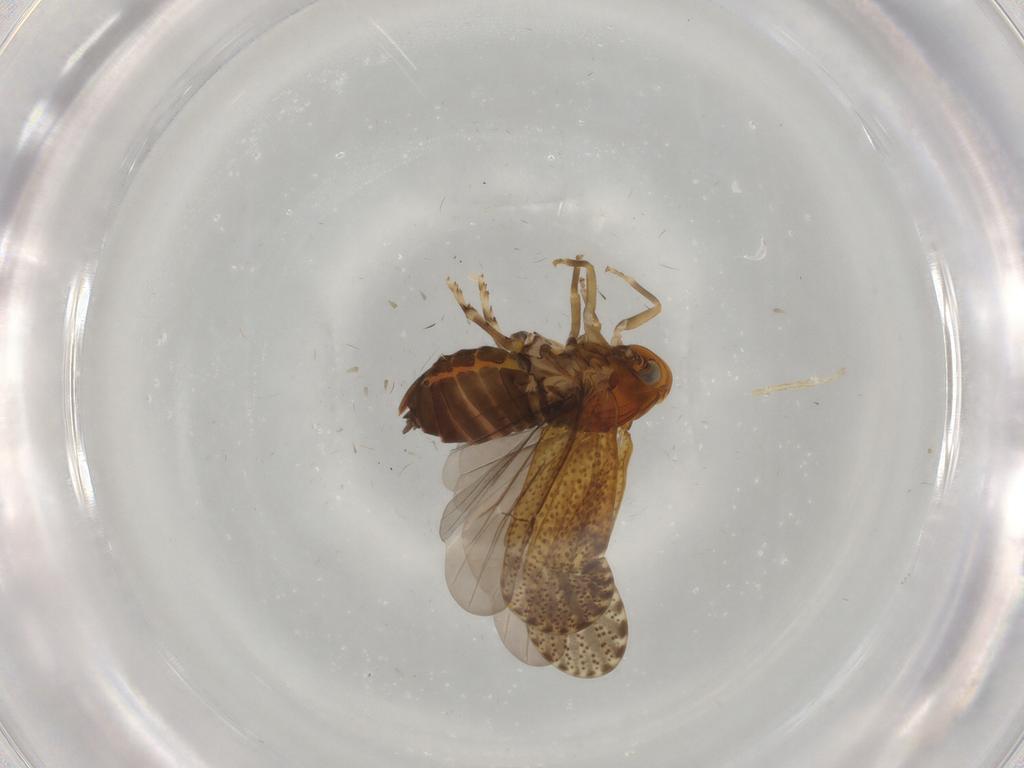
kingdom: Animalia
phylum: Arthropoda
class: Insecta
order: Hemiptera
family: Delphacidae
